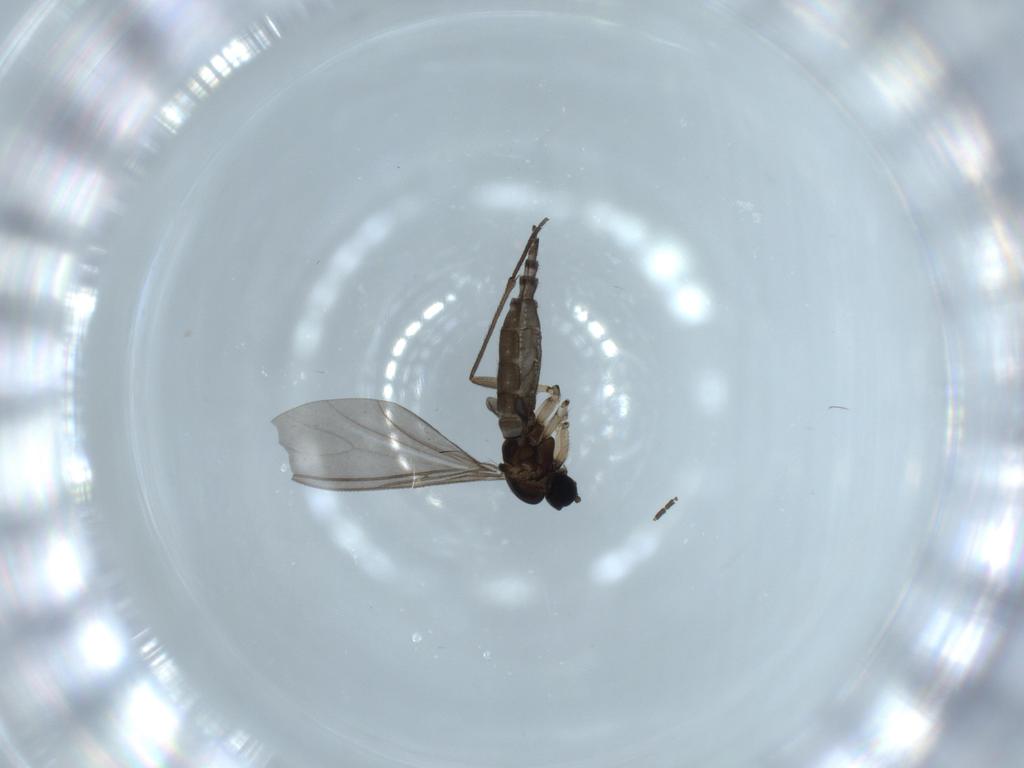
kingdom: Animalia
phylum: Arthropoda
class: Insecta
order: Diptera
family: Sciaridae
